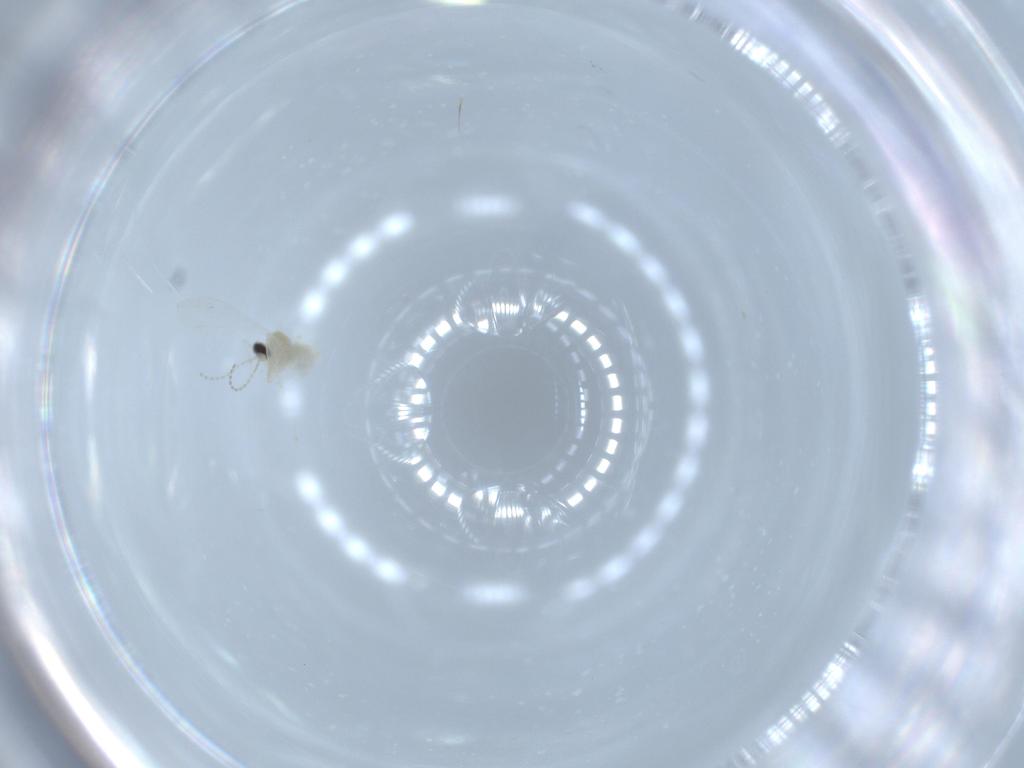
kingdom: Animalia
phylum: Arthropoda
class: Insecta
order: Diptera
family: Cecidomyiidae
